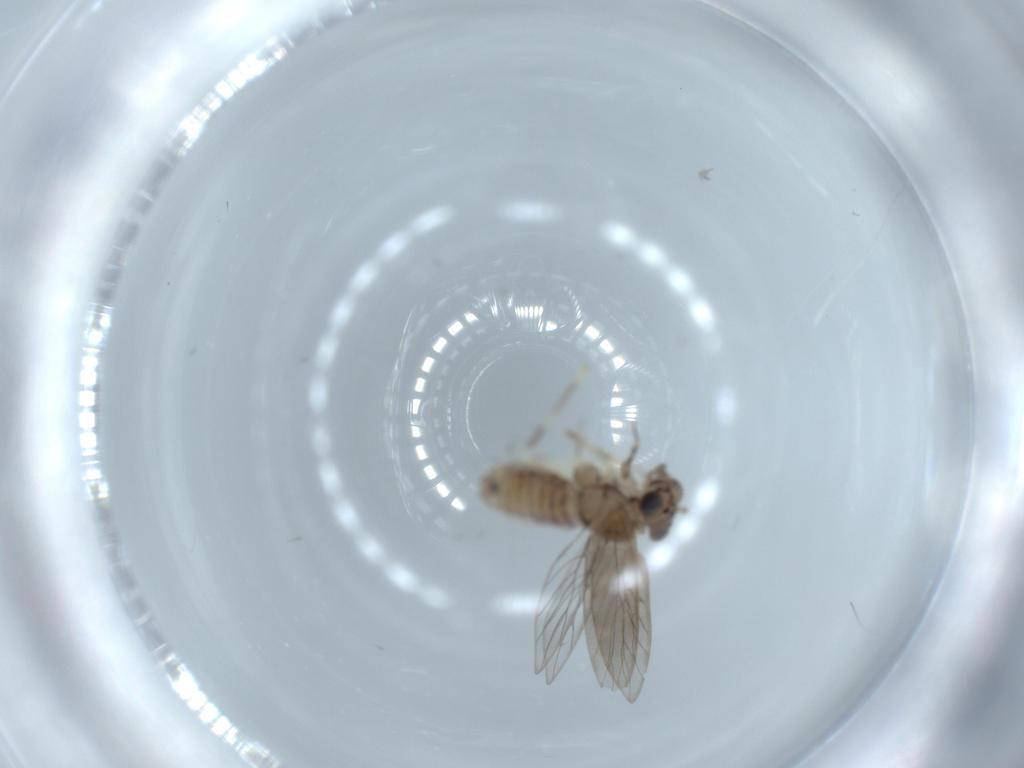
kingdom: Animalia
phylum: Arthropoda
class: Insecta
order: Psocodea
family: Lepidopsocidae
